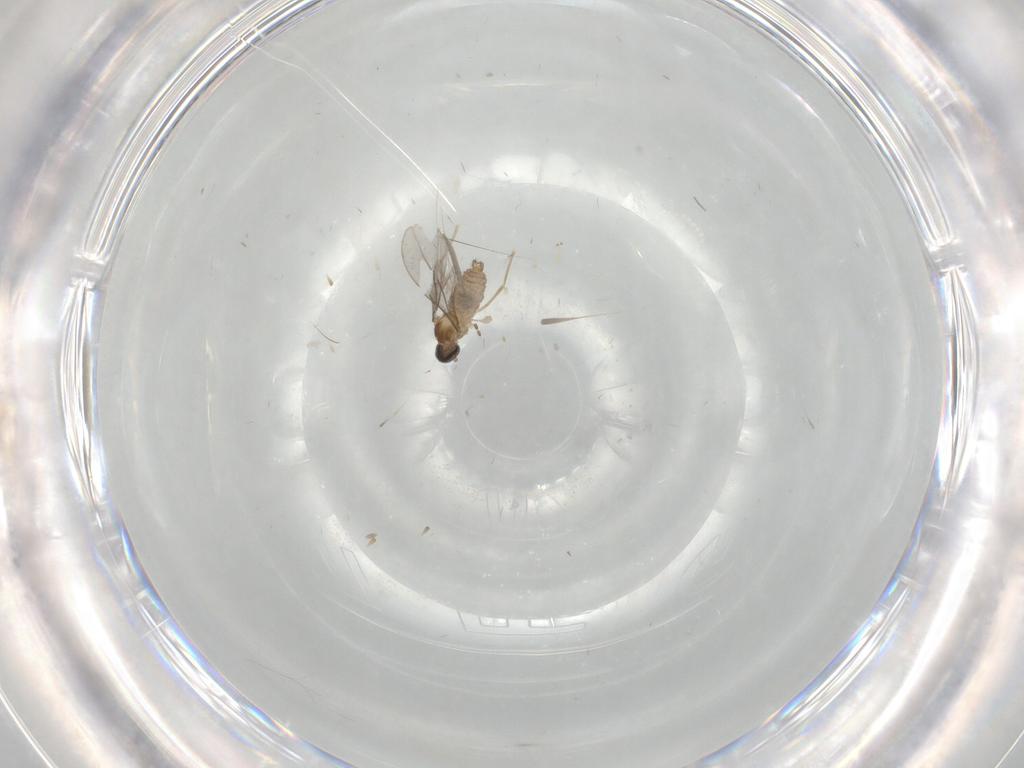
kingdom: Animalia
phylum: Arthropoda
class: Insecta
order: Diptera
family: Cecidomyiidae
